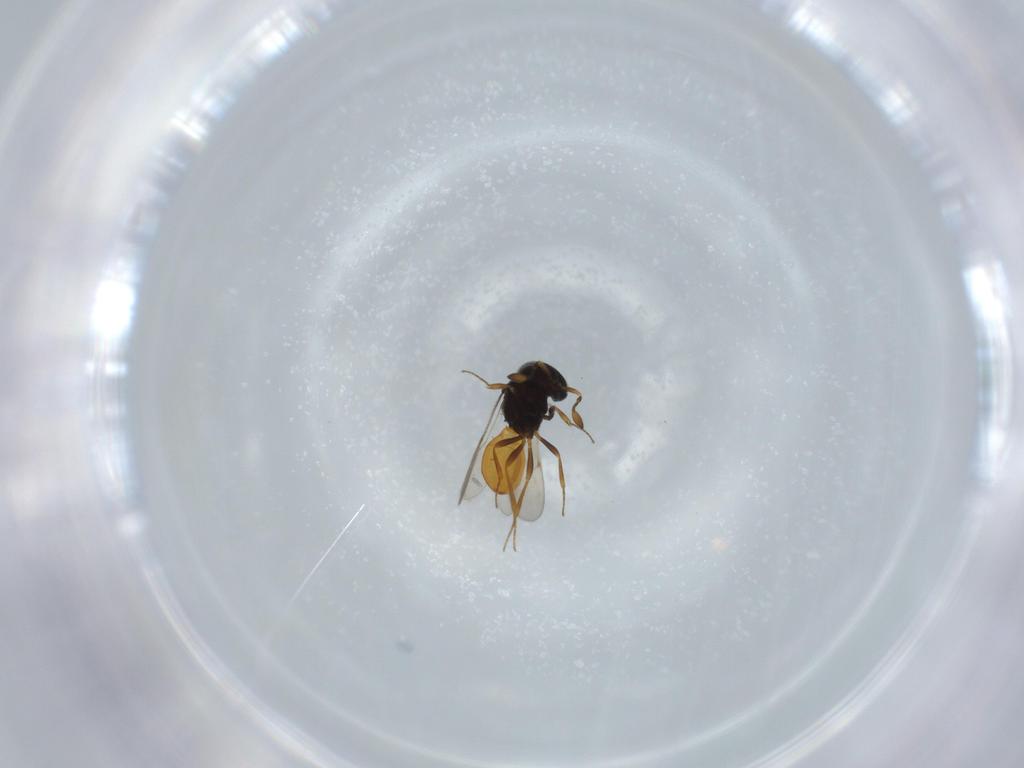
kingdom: Animalia
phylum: Arthropoda
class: Insecta
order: Hymenoptera
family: Scelionidae
